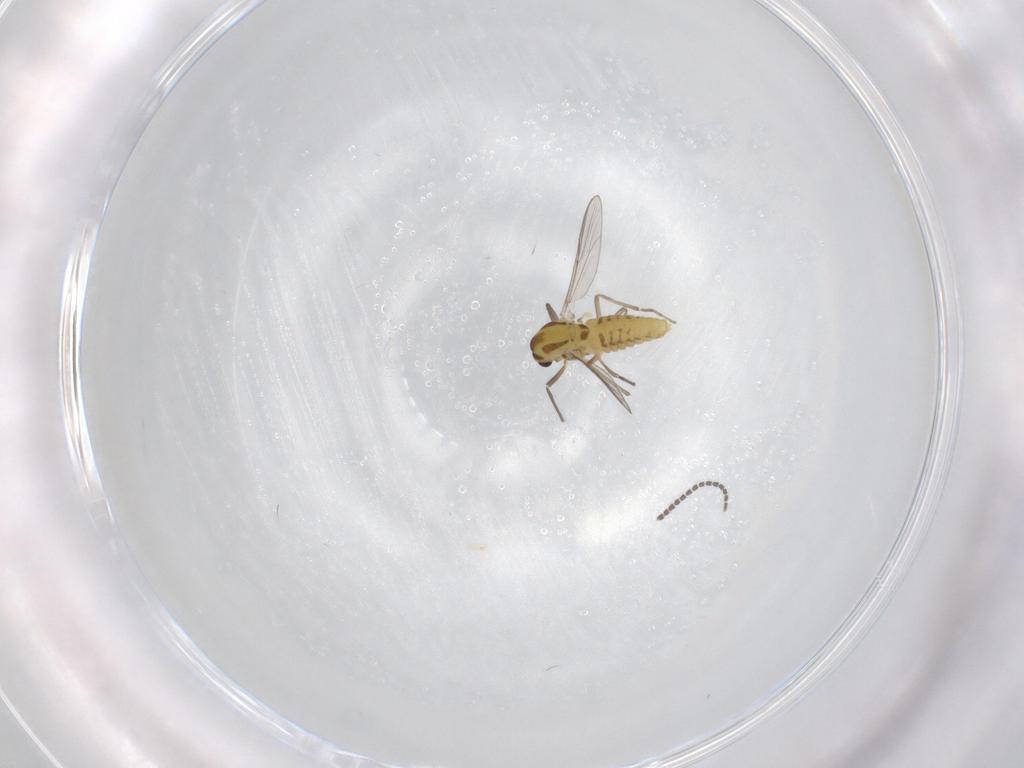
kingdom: Animalia
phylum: Arthropoda
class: Insecta
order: Diptera
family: Chironomidae
